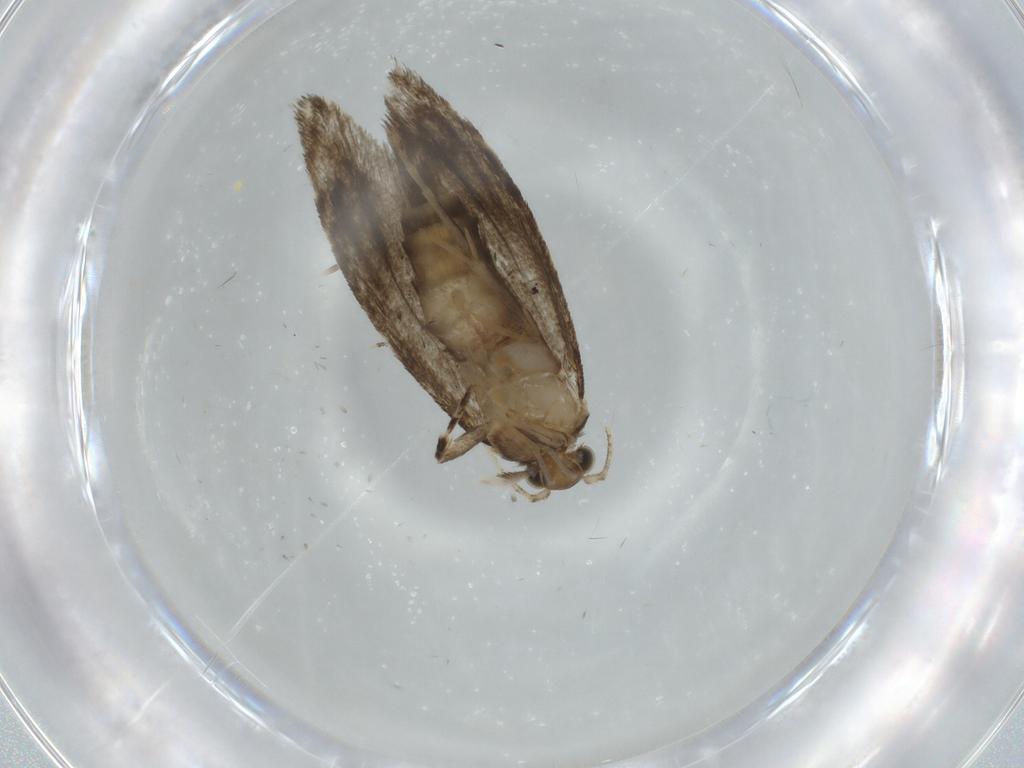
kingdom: Animalia
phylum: Arthropoda
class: Insecta
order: Lepidoptera
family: Tineidae
